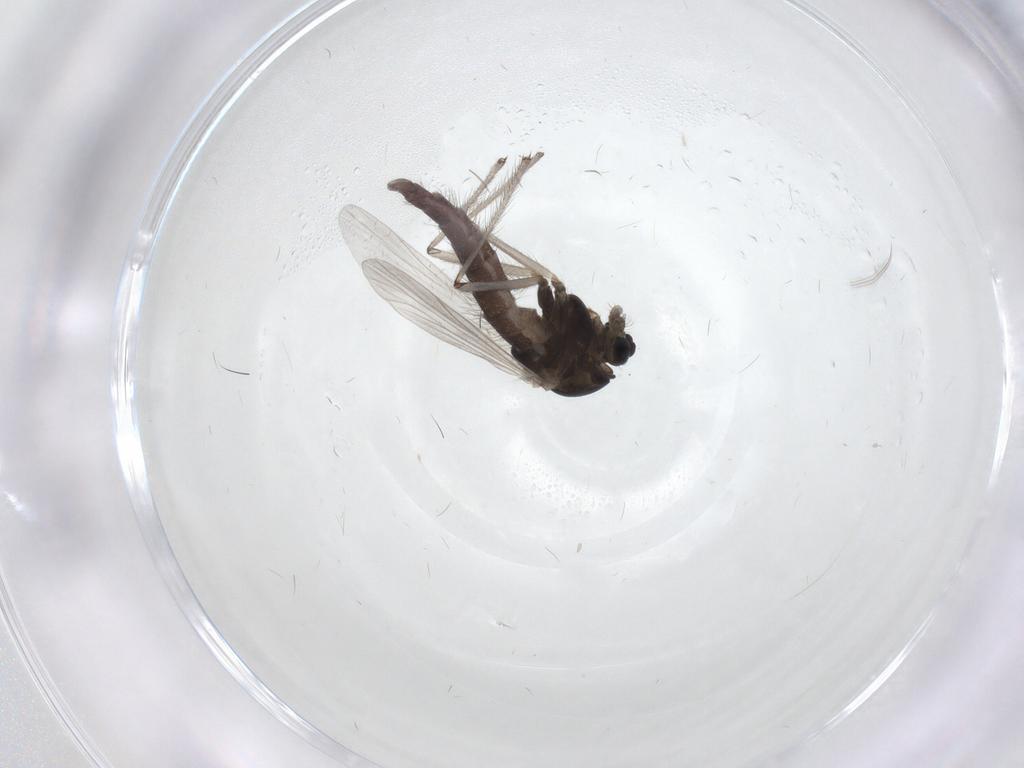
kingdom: Animalia
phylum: Arthropoda
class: Insecta
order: Diptera
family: Chironomidae
